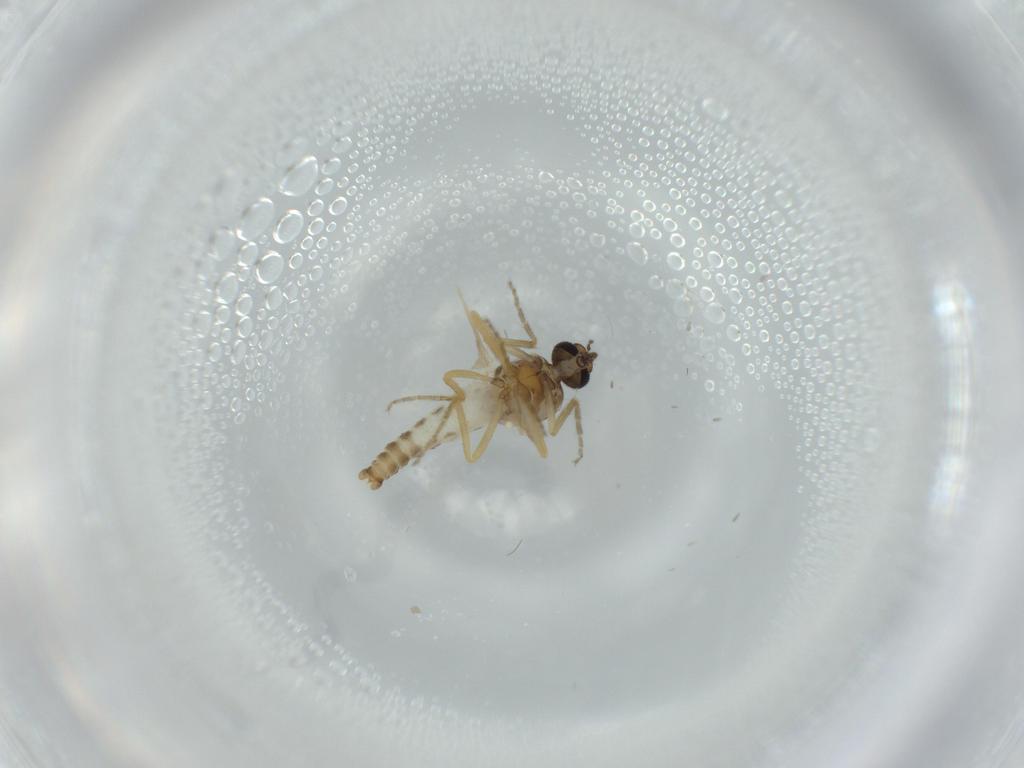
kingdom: Animalia
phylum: Arthropoda
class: Insecta
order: Diptera
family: Ceratopogonidae
